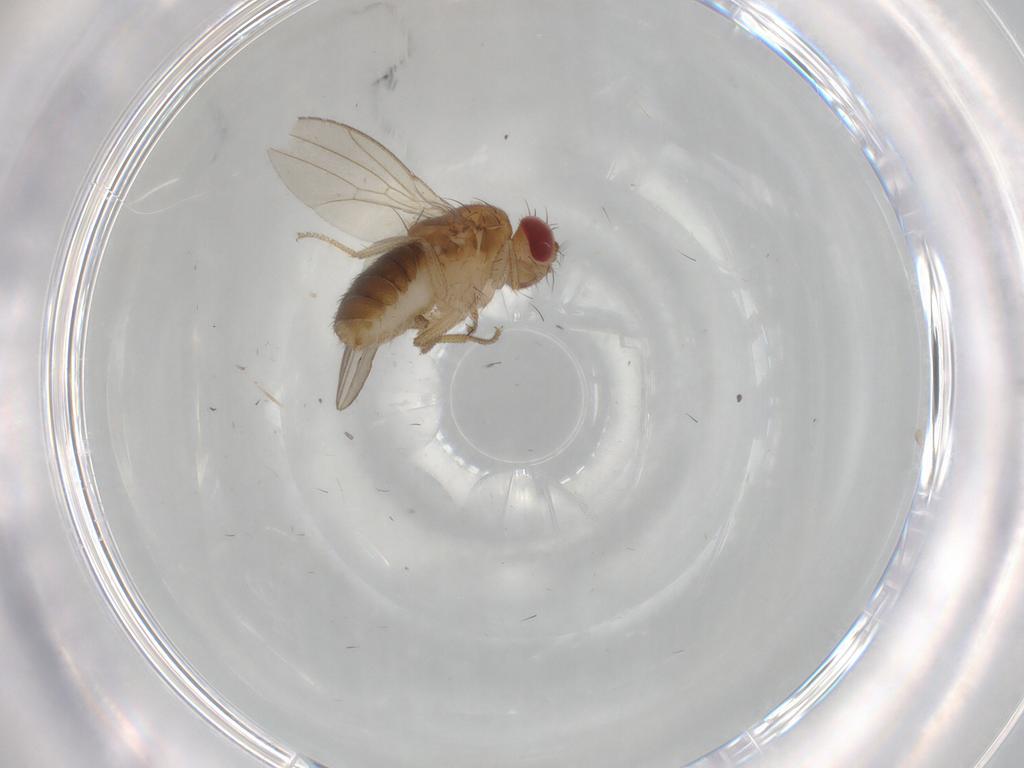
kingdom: Animalia
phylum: Arthropoda
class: Insecta
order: Diptera
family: Drosophilidae
